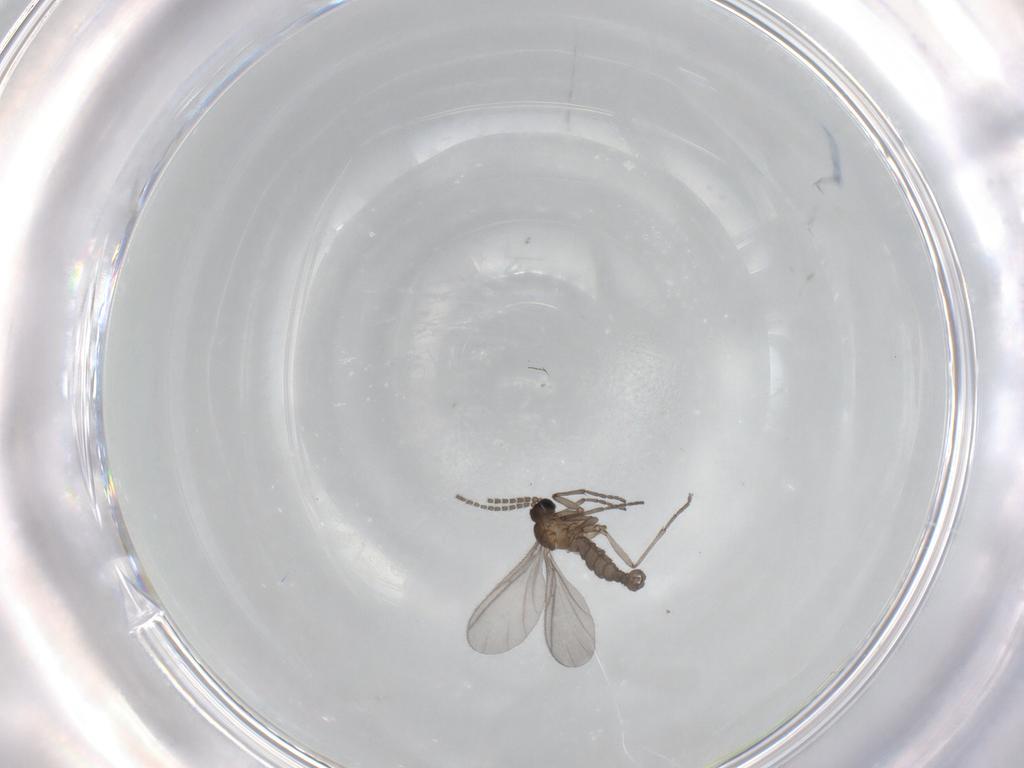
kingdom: Animalia
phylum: Arthropoda
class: Insecta
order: Diptera
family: Sciaridae
